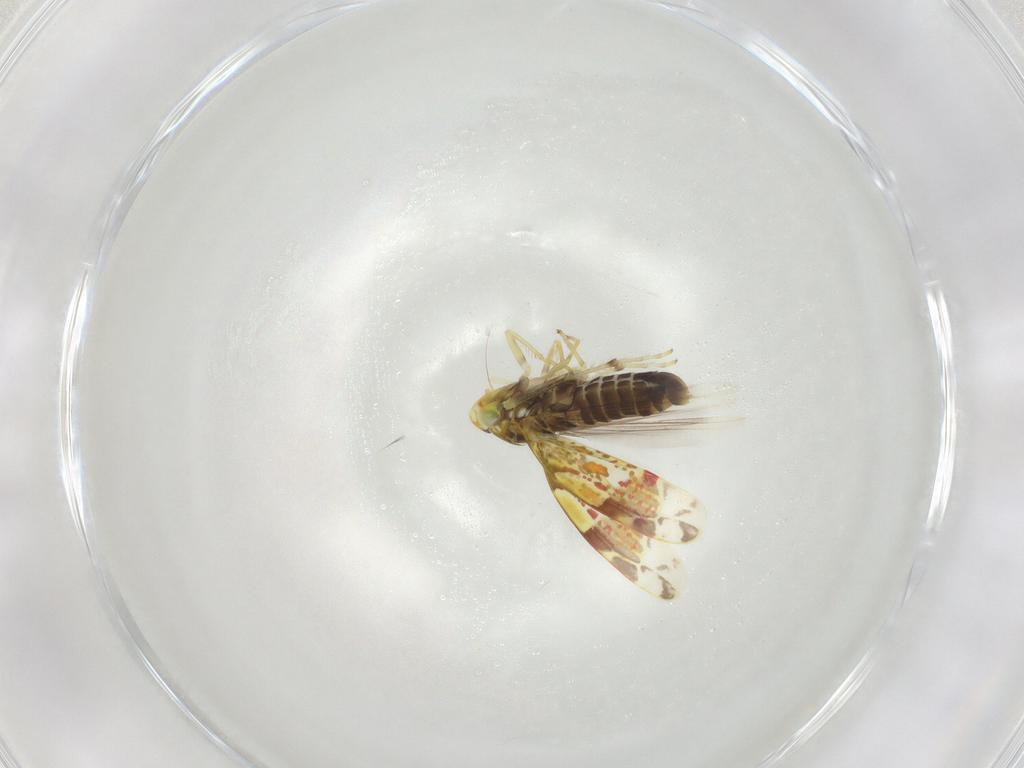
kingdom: Animalia
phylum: Arthropoda
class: Insecta
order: Hemiptera
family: Cicadellidae
